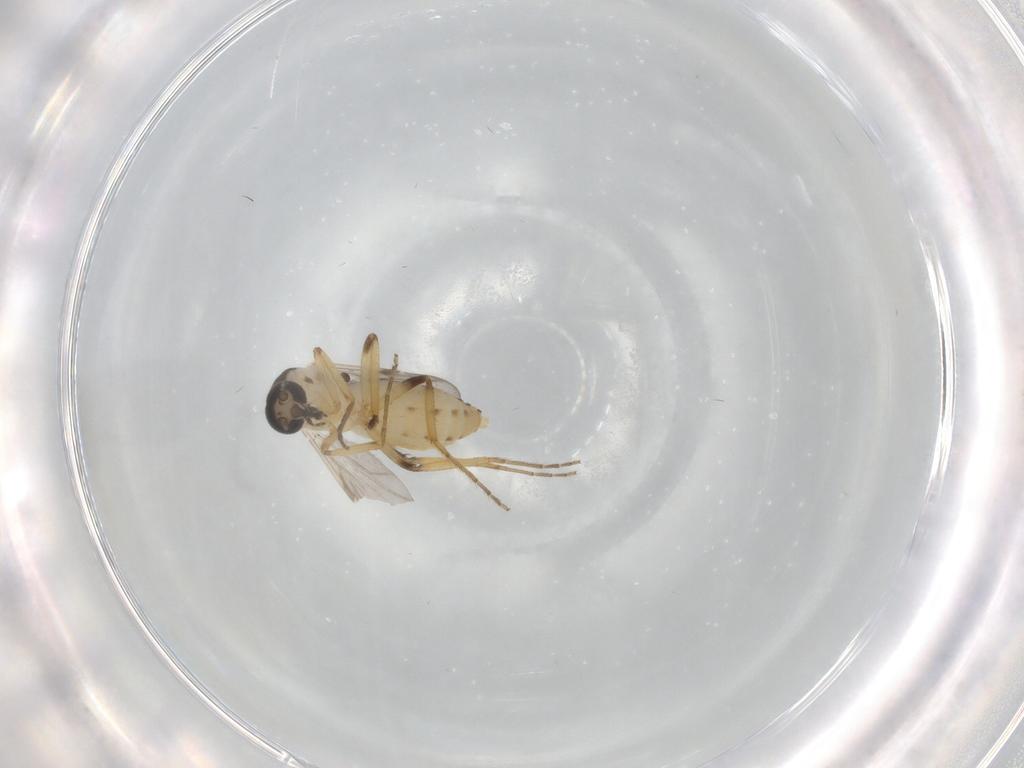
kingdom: Animalia
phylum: Arthropoda
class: Insecta
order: Diptera
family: Ceratopogonidae
